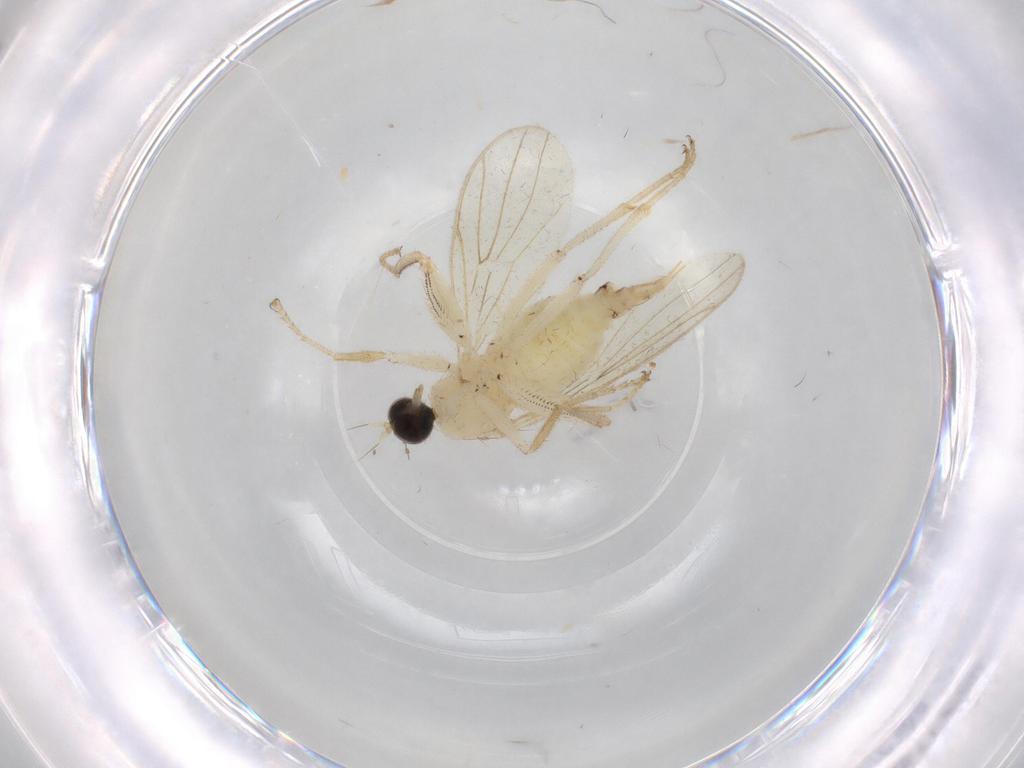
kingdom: Animalia
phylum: Arthropoda
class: Insecta
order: Diptera
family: Hybotidae
